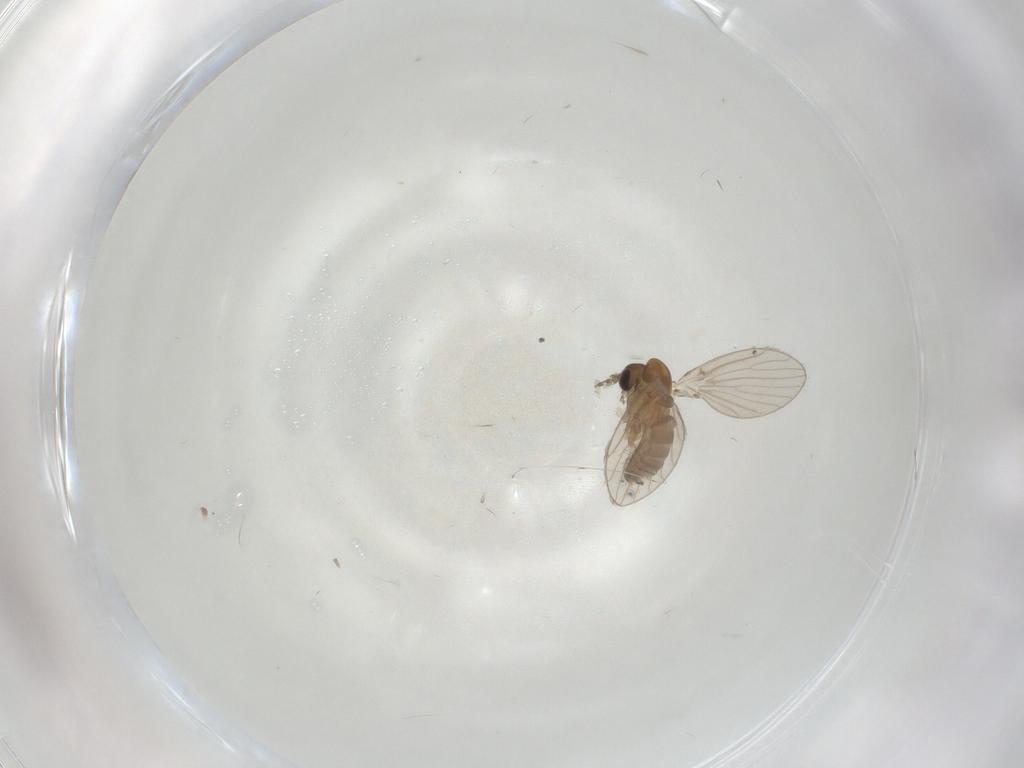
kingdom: Animalia
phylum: Arthropoda
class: Insecta
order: Diptera
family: Psychodidae
